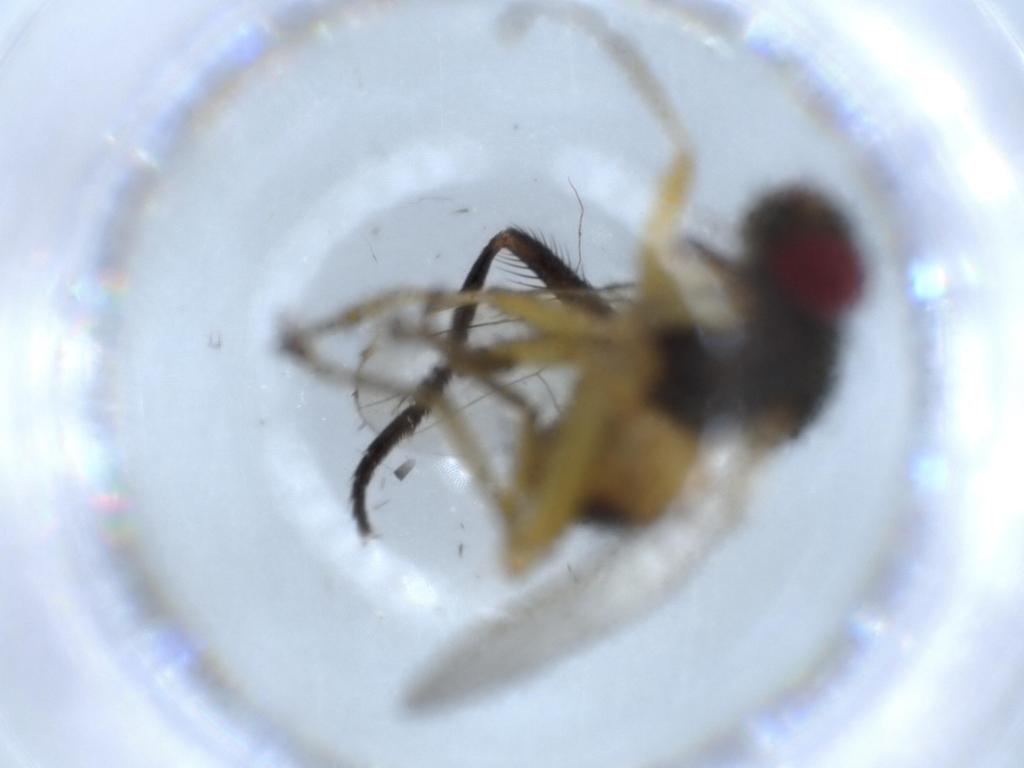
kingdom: Animalia
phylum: Arthropoda
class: Insecta
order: Diptera
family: Muscidae
